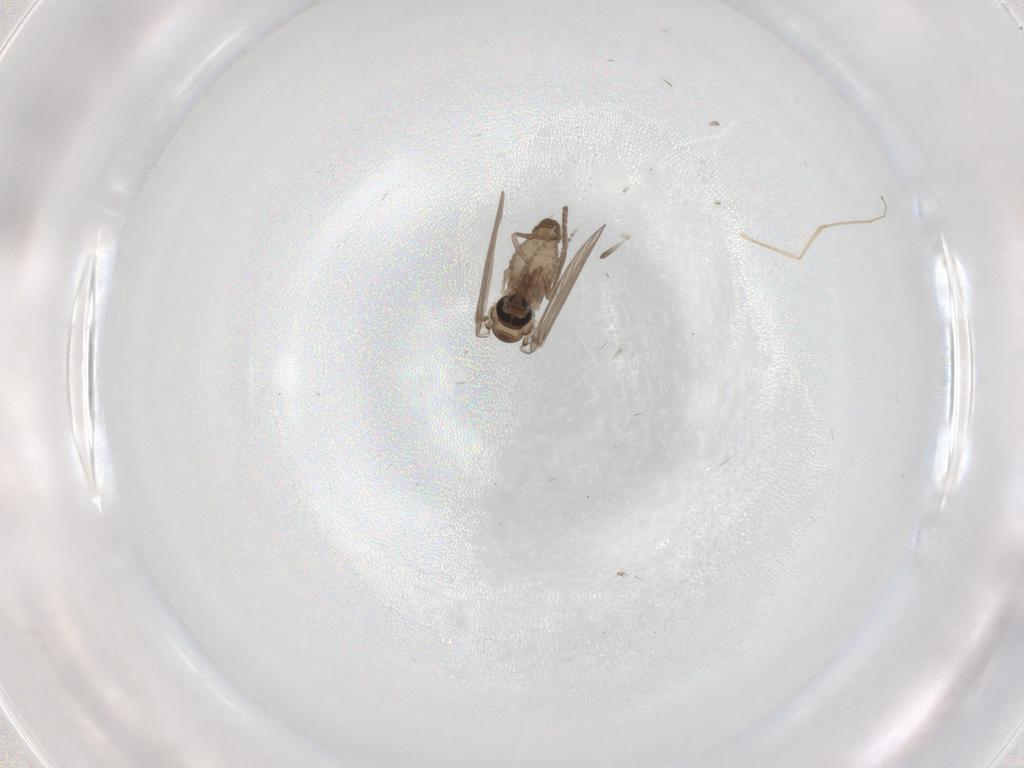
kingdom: Animalia
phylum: Arthropoda
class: Insecta
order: Diptera
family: Psychodidae
